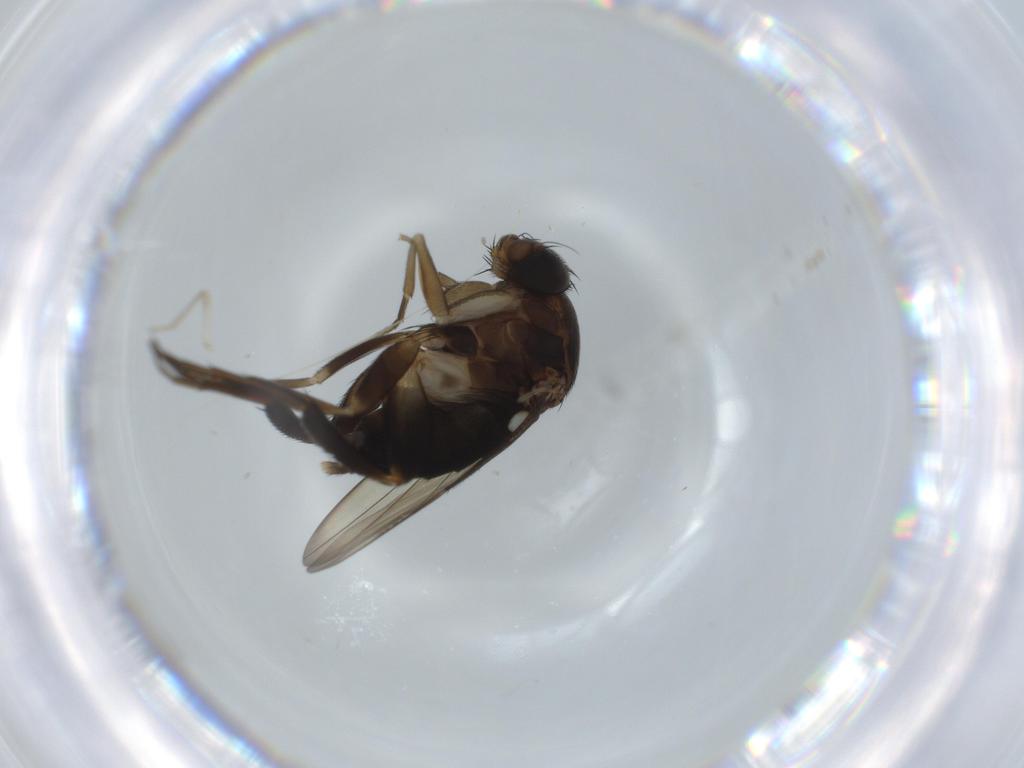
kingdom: Animalia
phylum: Arthropoda
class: Insecta
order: Diptera
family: Phoridae
